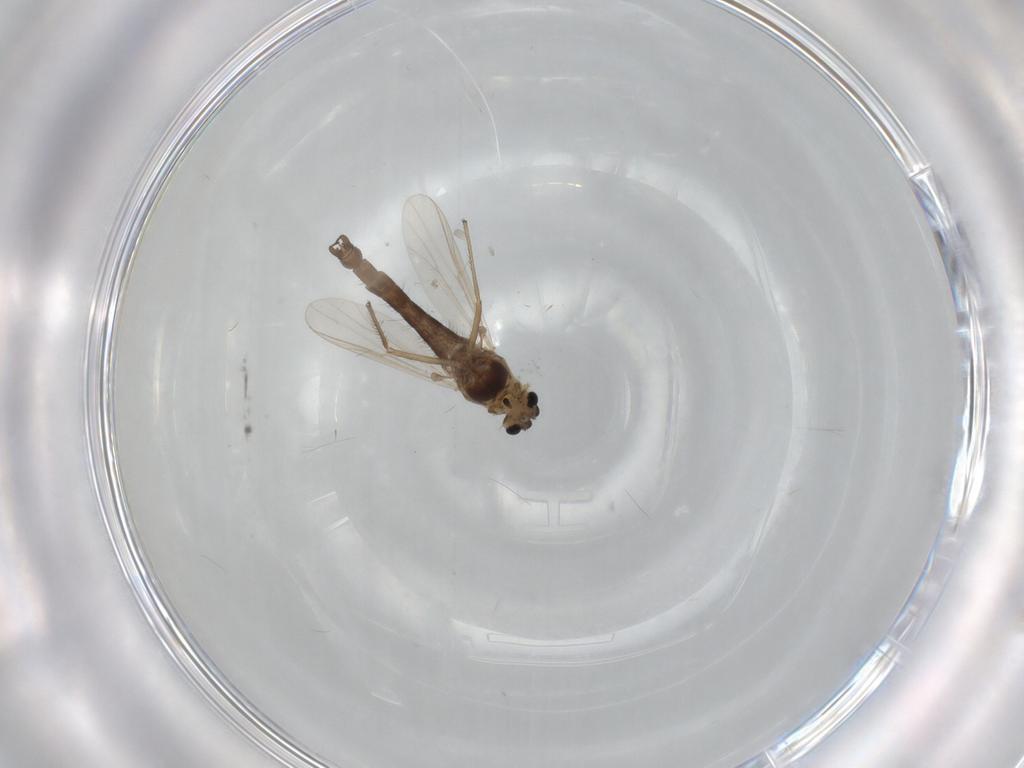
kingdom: Animalia
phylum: Arthropoda
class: Insecta
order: Diptera
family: Chironomidae
